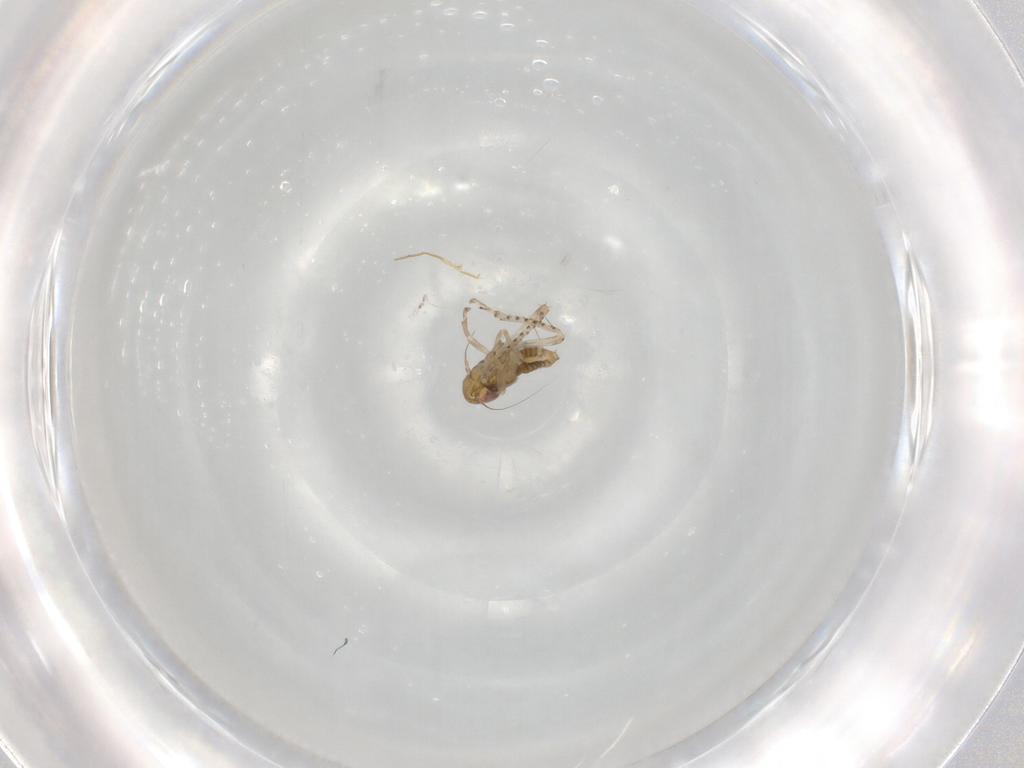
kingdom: Animalia
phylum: Arthropoda
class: Insecta
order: Hemiptera
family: Cicadellidae
